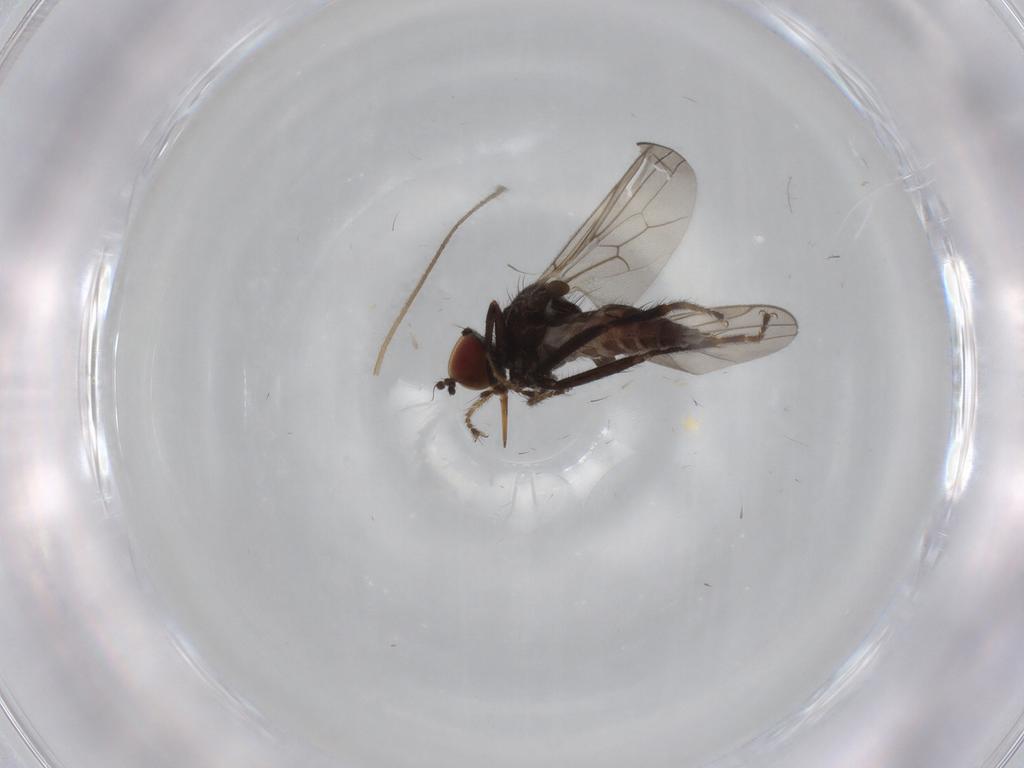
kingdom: Animalia
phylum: Arthropoda
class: Insecta
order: Diptera
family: Hybotidae
